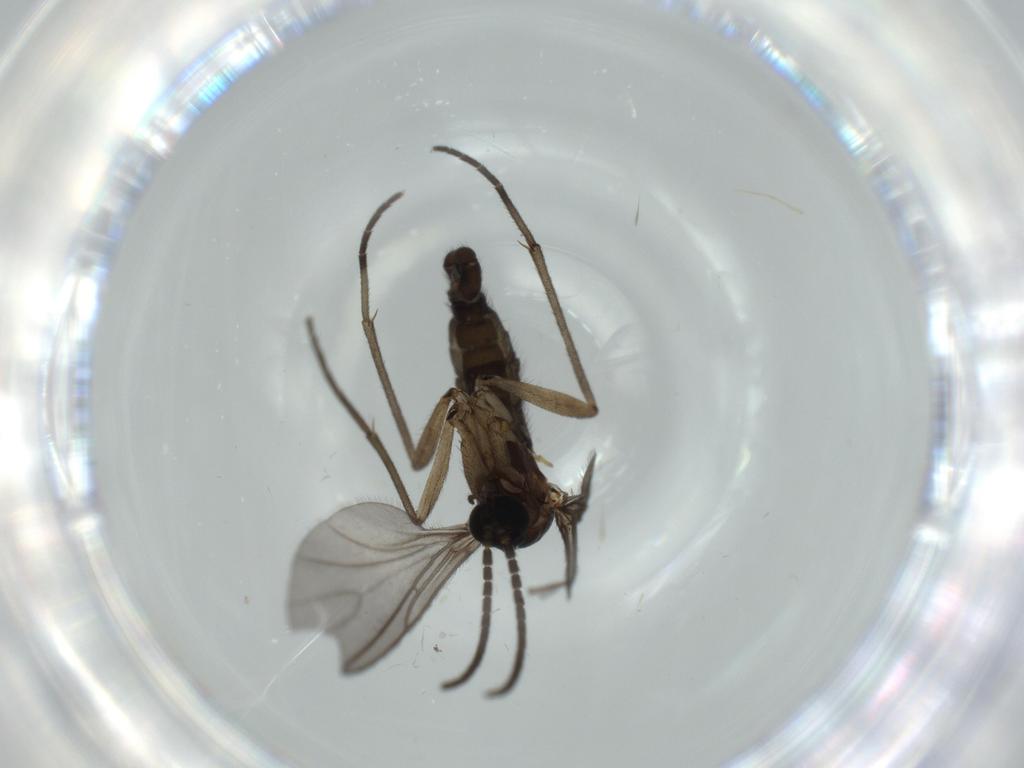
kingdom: Animalia
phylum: Arthropoda
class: Insecta
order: Diptera
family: Sciaridae
